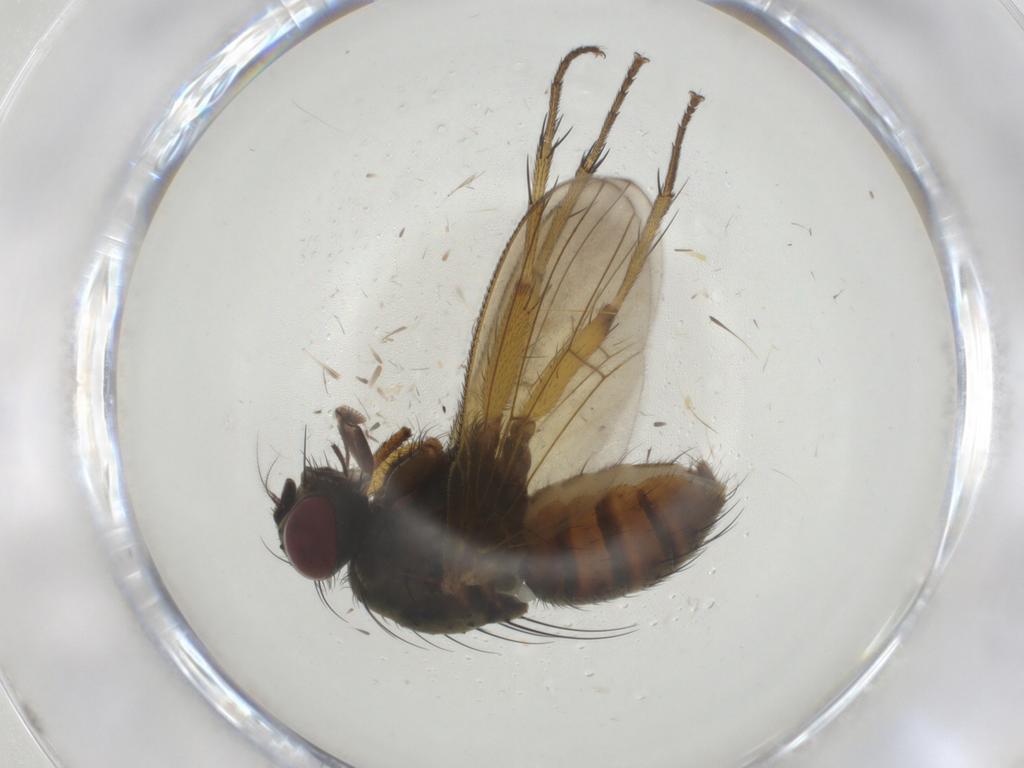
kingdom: Animalia
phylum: Arthropoda
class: Insecta
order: Diptera
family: Muscidae
